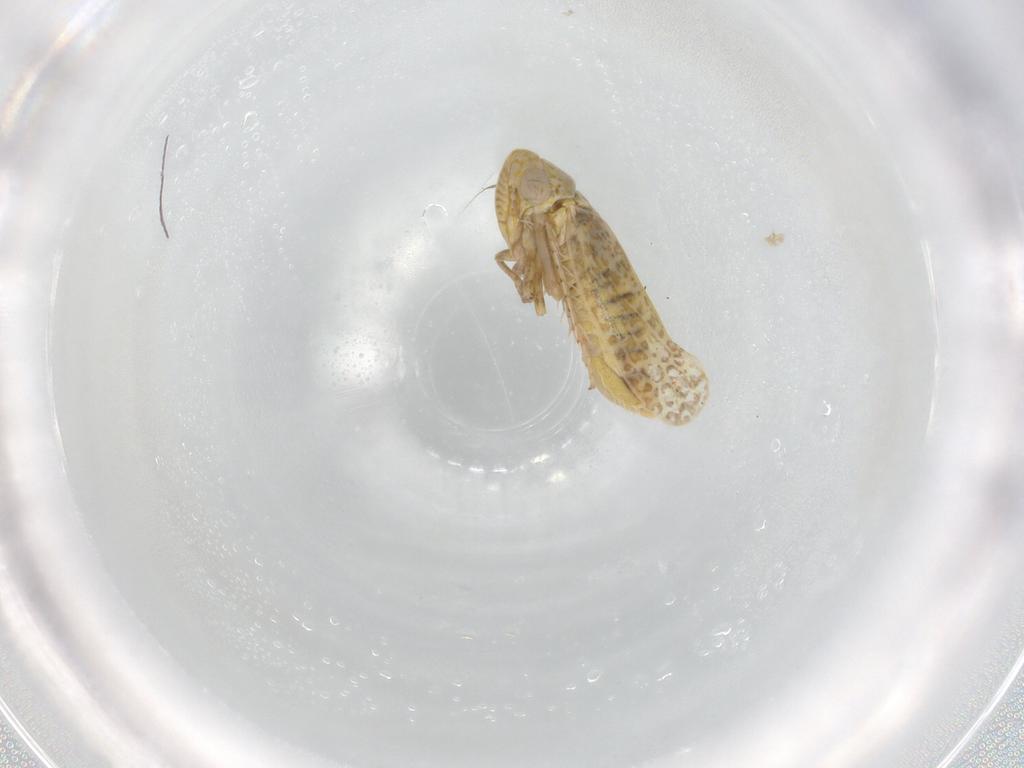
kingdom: Animalia
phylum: Arthropoda
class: Insecta
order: Hemiptera
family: Cicadellidae
